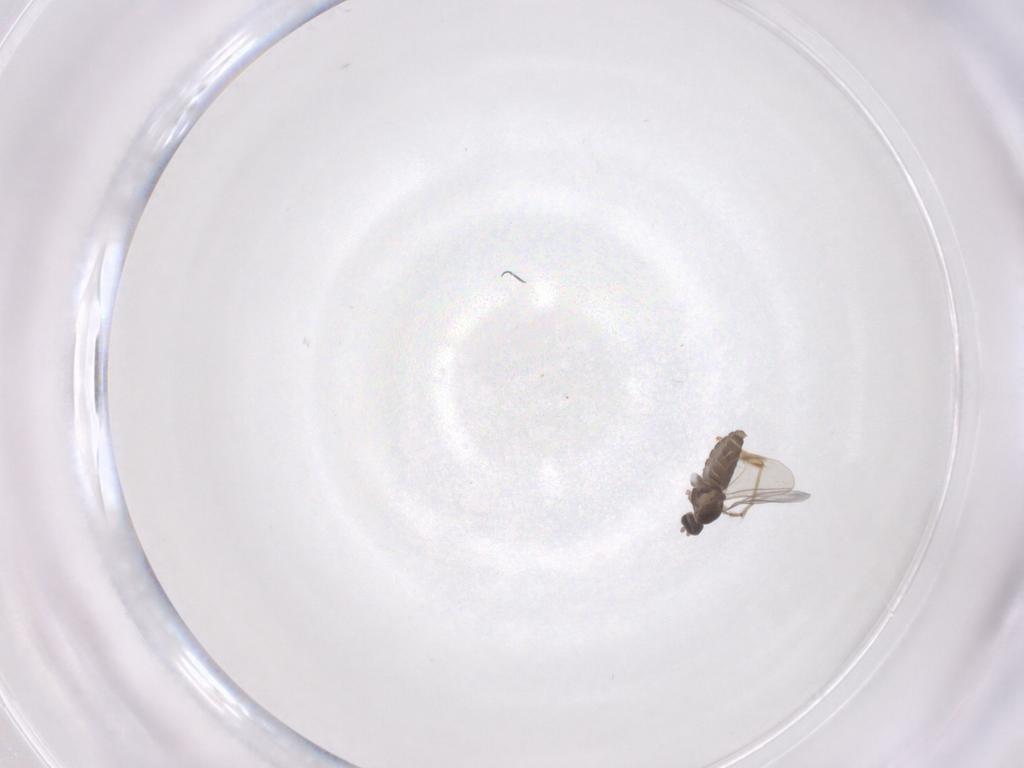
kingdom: Animalia
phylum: Arthropoda
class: Insecta
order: Diptera
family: Cecidomyiidae
